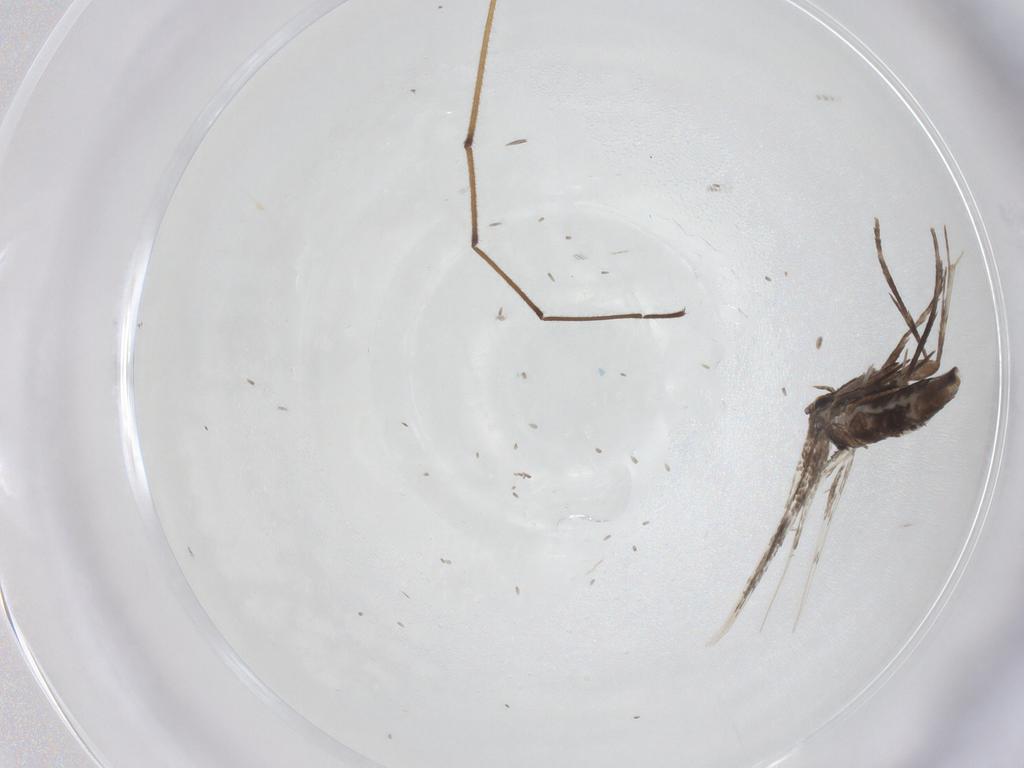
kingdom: Animalia
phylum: Arthropoda
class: Insecta
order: Lepidoptera
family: Gracillariidae
